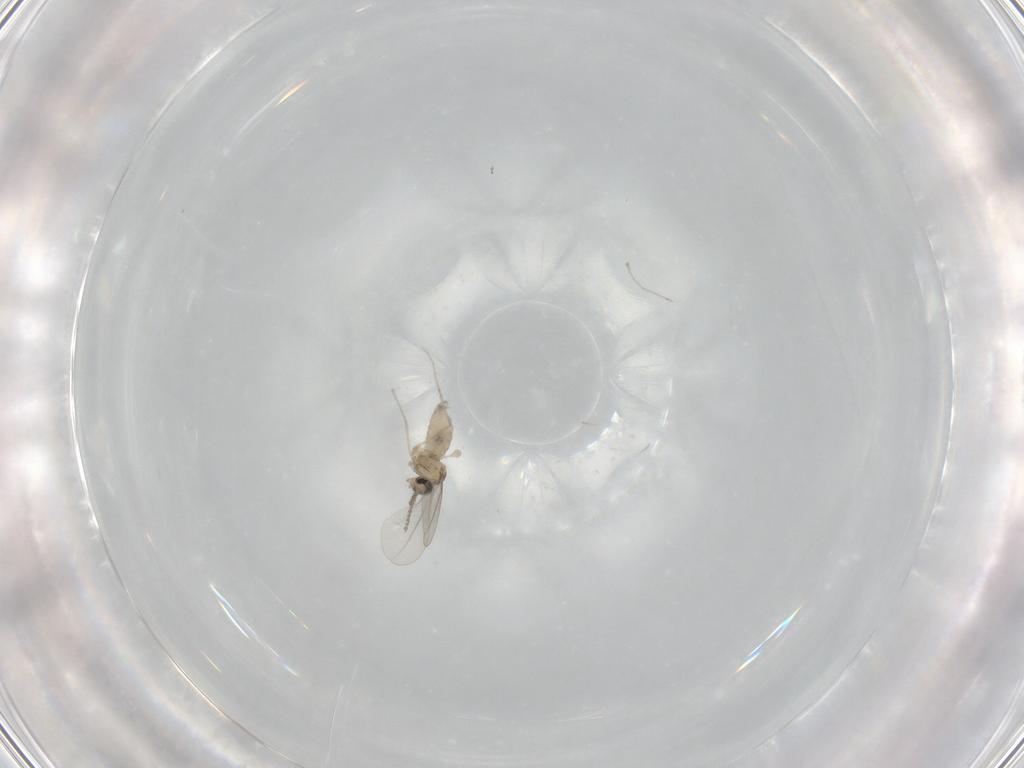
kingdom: Animalia
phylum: Arthropoda
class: Insecta
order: Diptera
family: Cecidomyiidae
